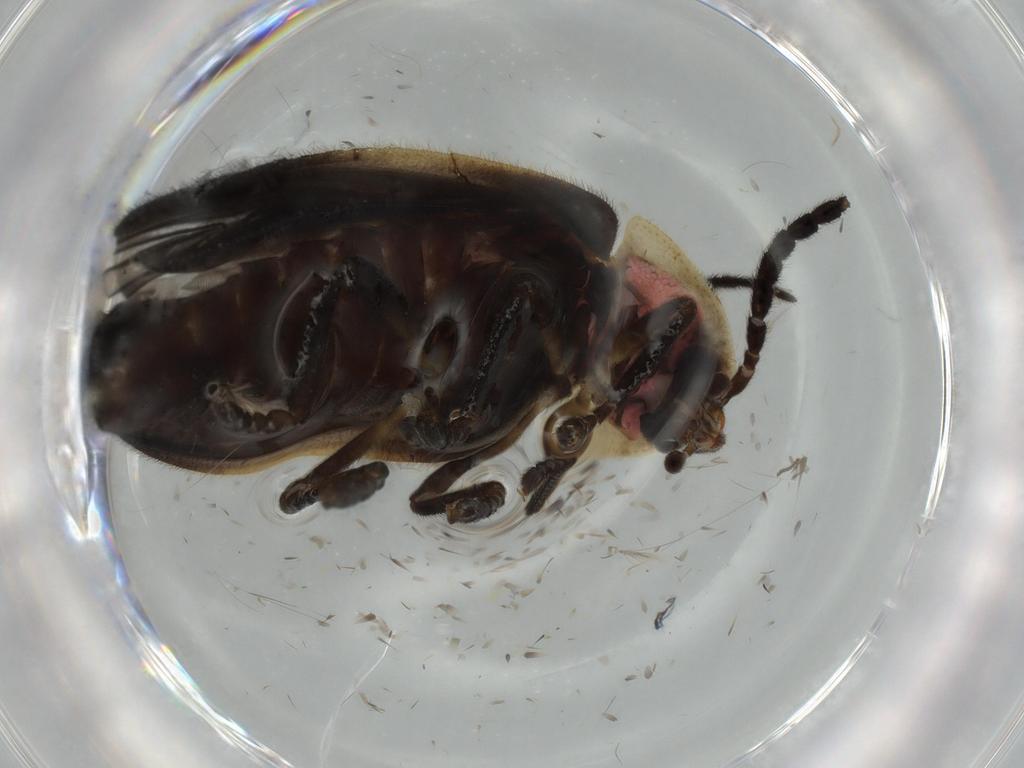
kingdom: Animalia
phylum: Arthropoda
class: Insecta
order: Coleoptera
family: Lampyridae
